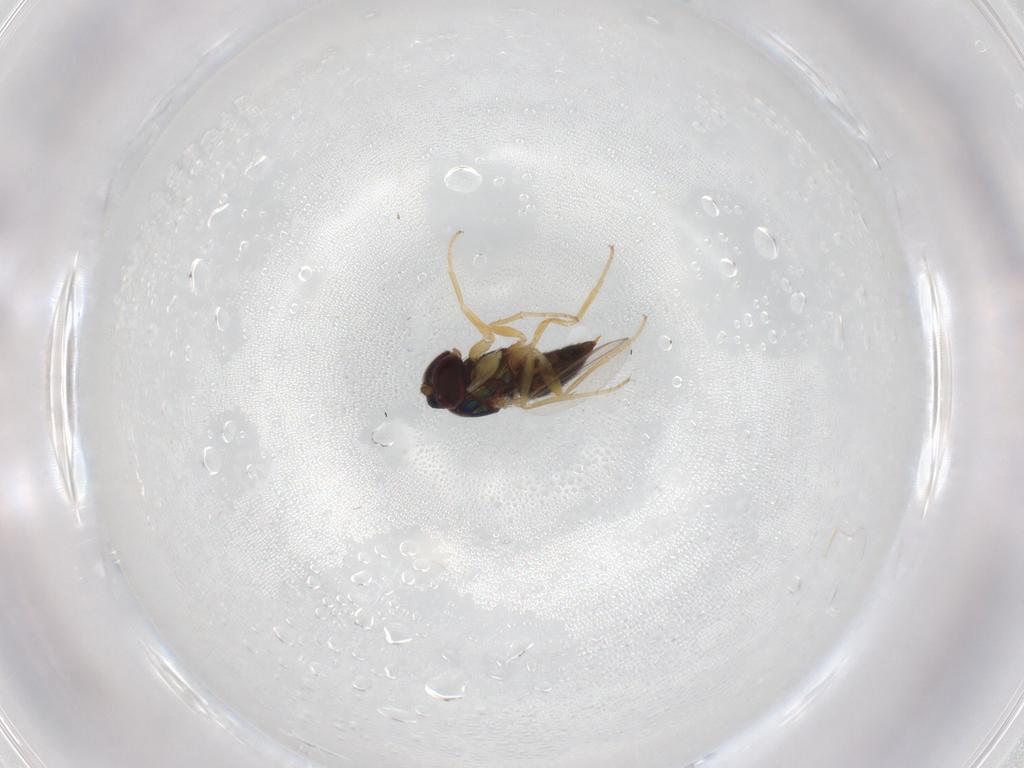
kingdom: Animalia
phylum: Arthropoda
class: Insecta
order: Diptera
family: Dolichopodidae
